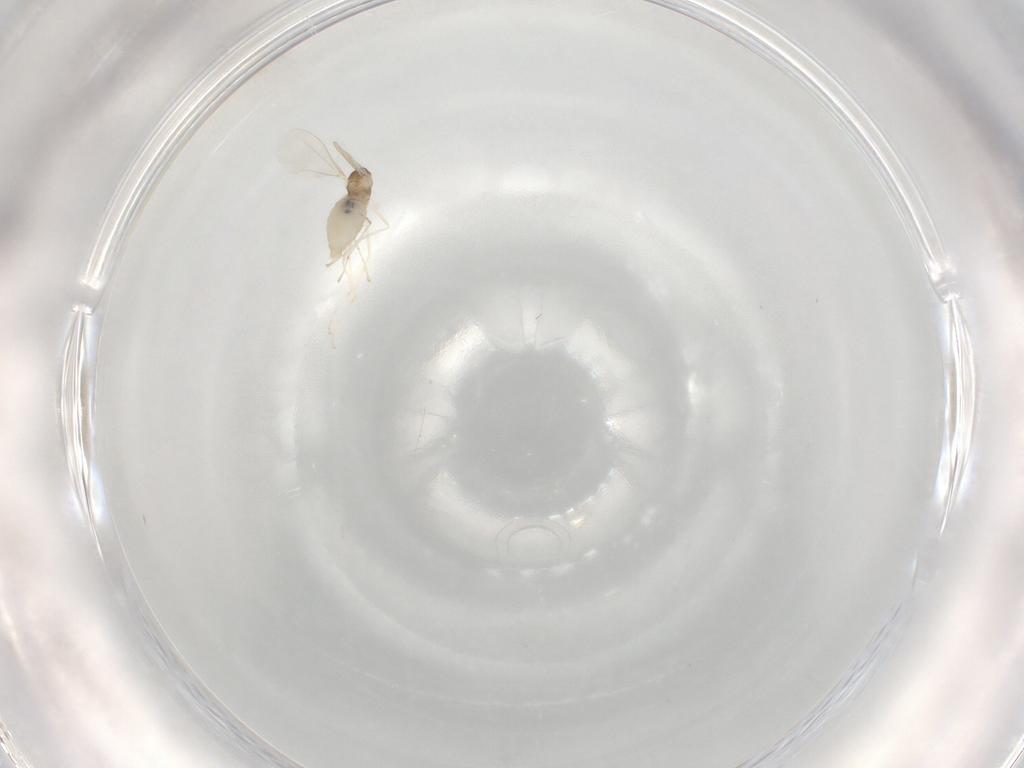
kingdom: Animalia
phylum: Arthropoda
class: Insecta
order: Diptera
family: Cecidomyiidae
